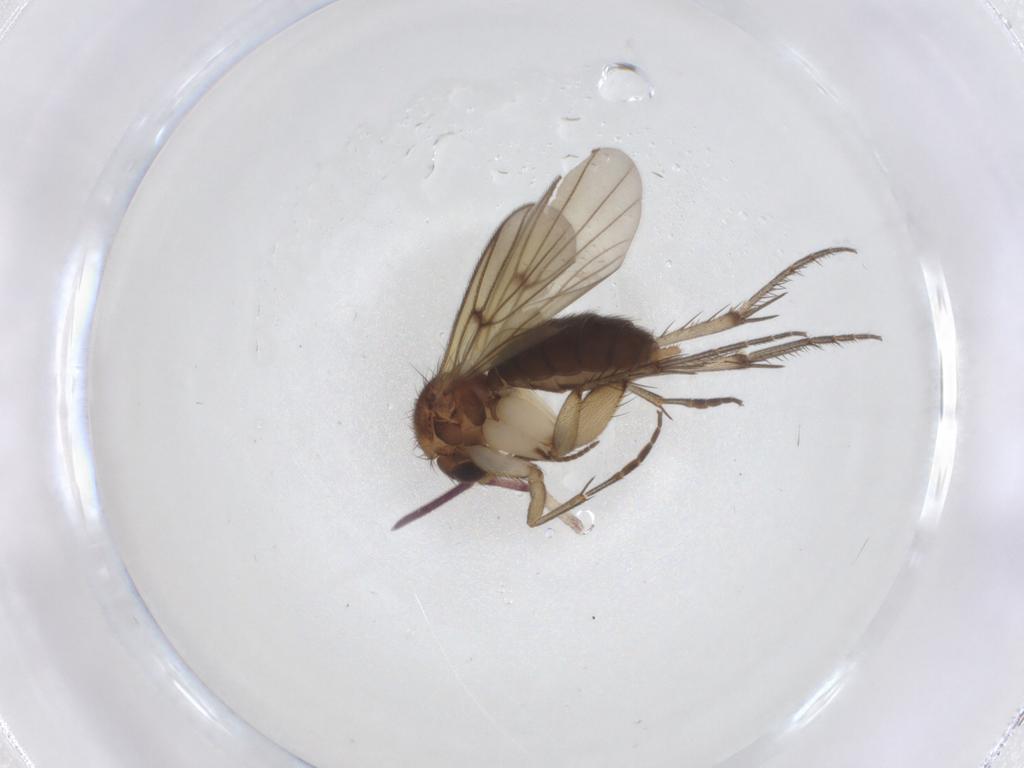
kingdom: Animalia
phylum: Arthropoda
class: Insecta
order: Diptera
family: Mycetophilidae
